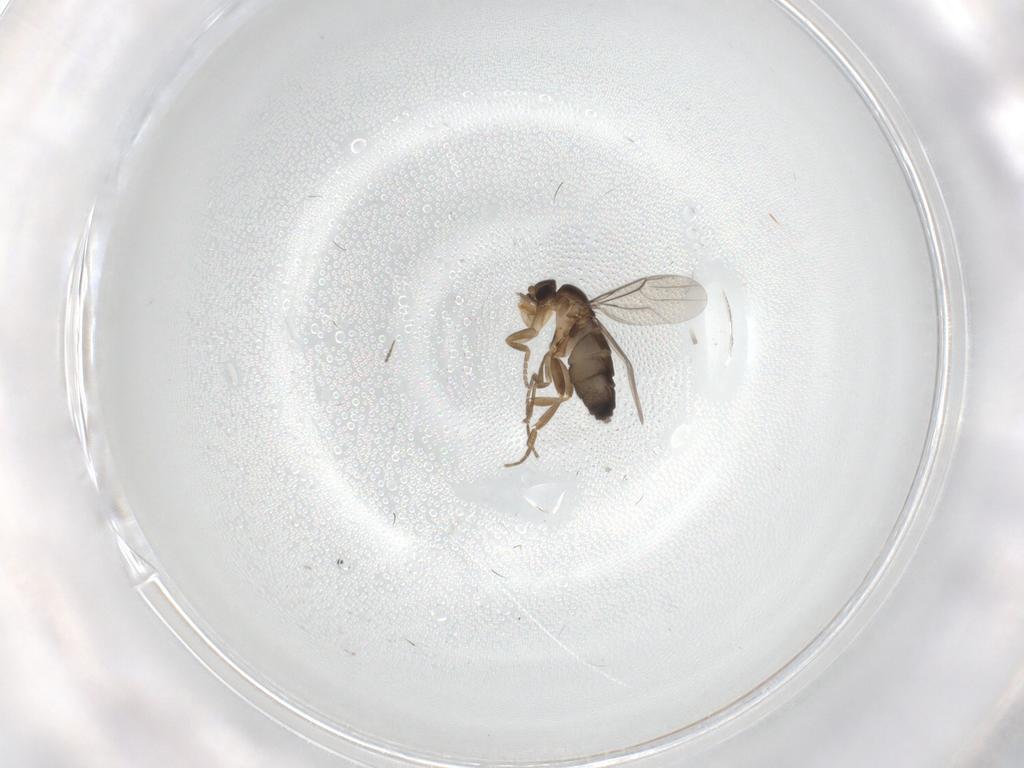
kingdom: Animalia
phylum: Arthropoda
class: Insecta
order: Diptera
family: Phoridae
